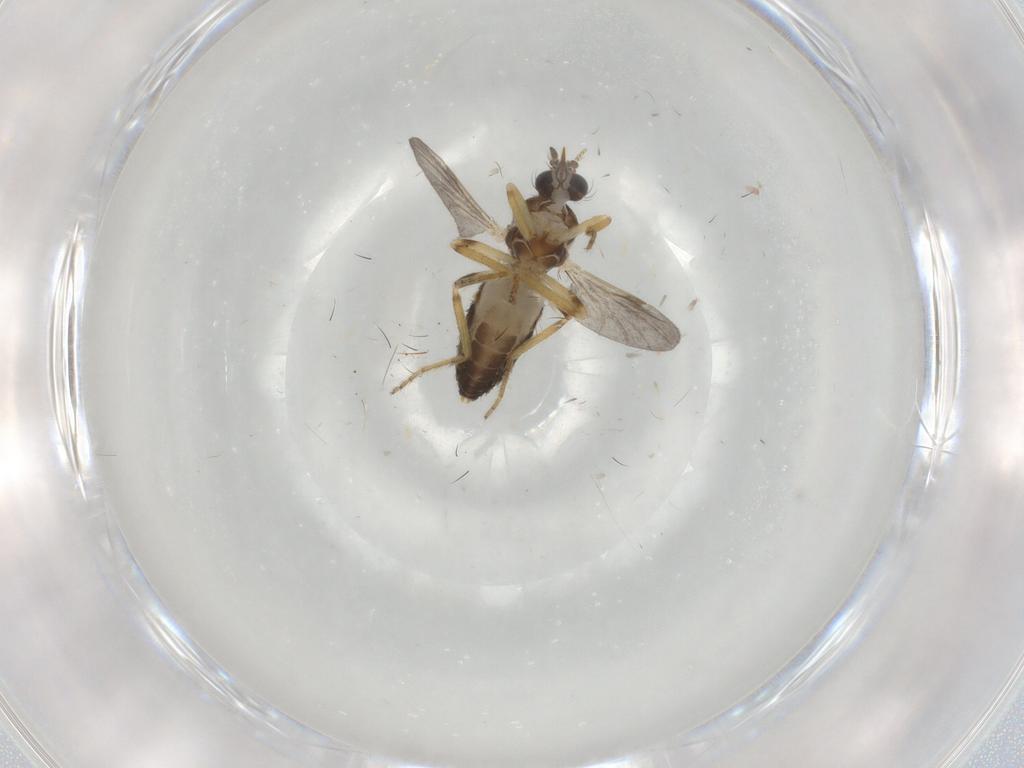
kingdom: Animalia
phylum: Arthropoda
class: Insecta
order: Diptera
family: Ceratopogonidae
